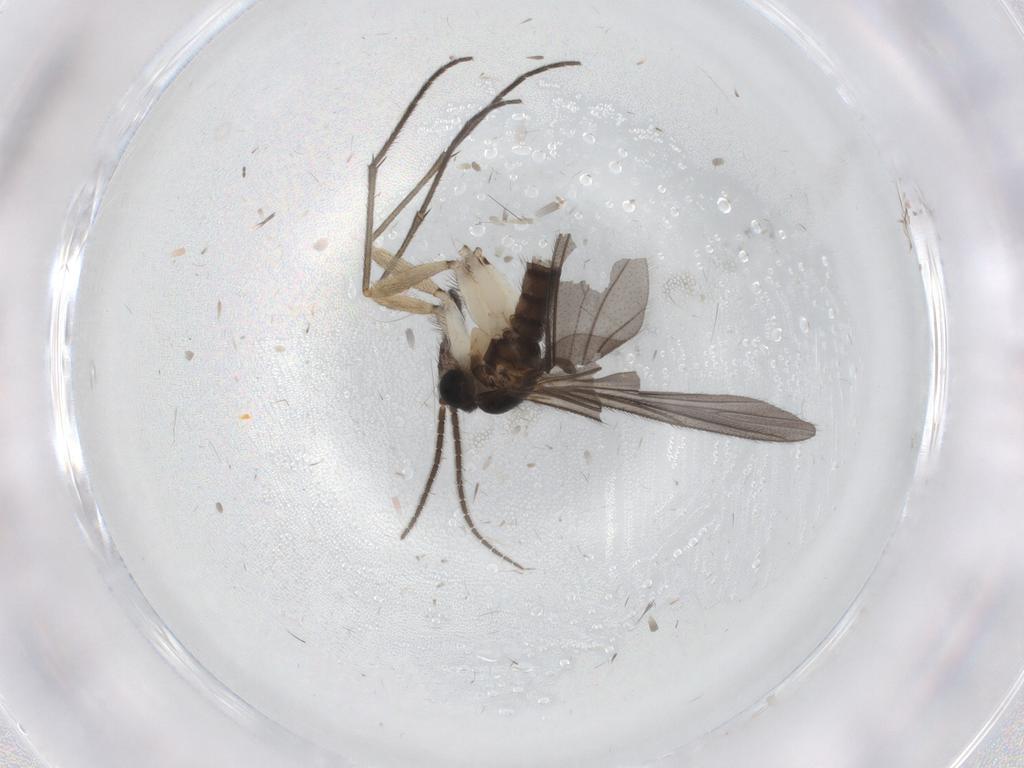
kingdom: Animalia
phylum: Arthropoda
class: Insecta
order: Diptera
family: Sciaridae
